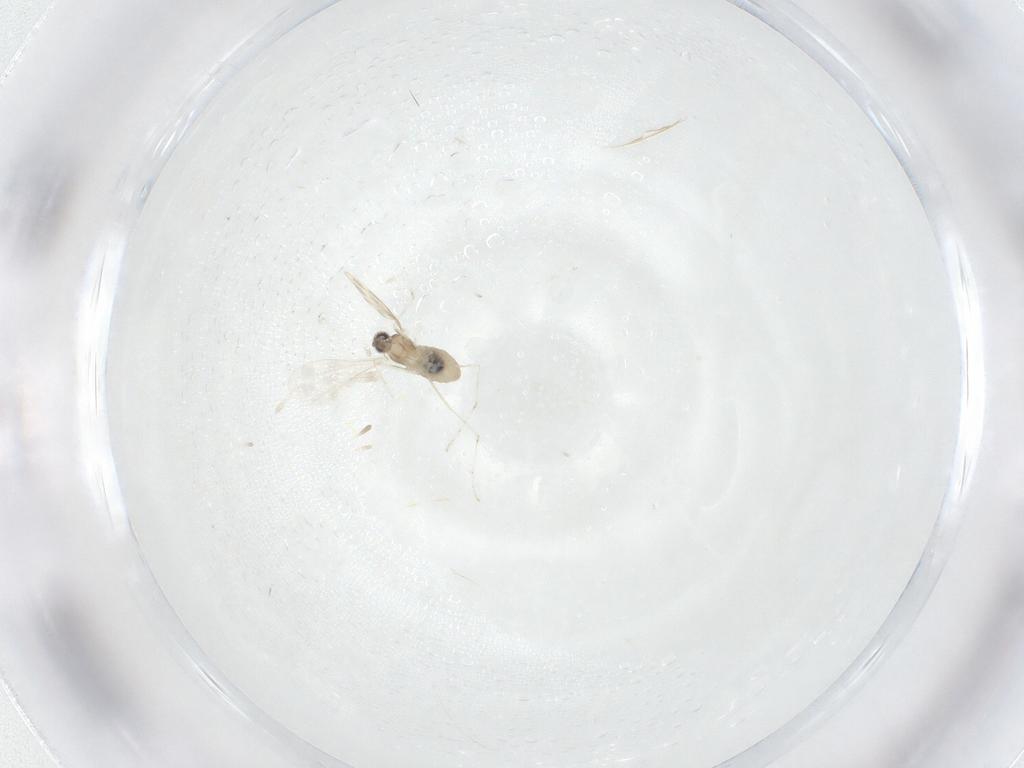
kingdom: Animalia
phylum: Arthropoda
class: Insecta
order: Diptera
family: Cecidomyiidae
